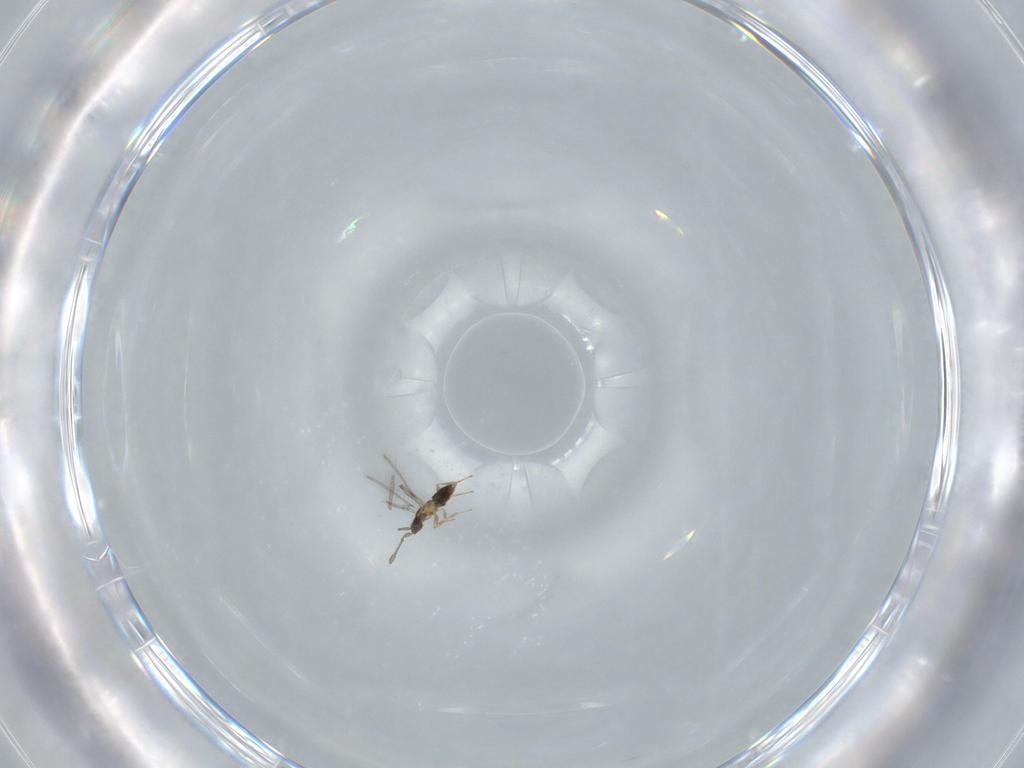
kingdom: Animalia
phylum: Arthropoda
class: Insecta
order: Hymenoptera
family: Mymaridae
